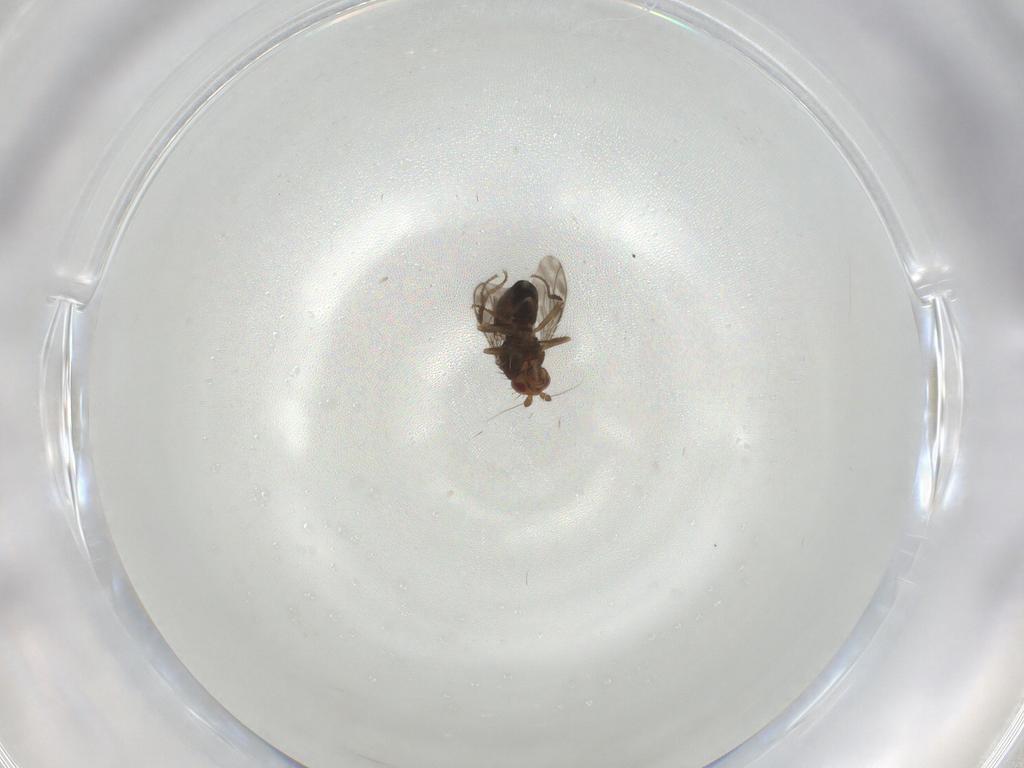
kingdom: Animalia
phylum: Arthropoda
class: Insecta
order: Diptera
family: Sphaeroceridae
